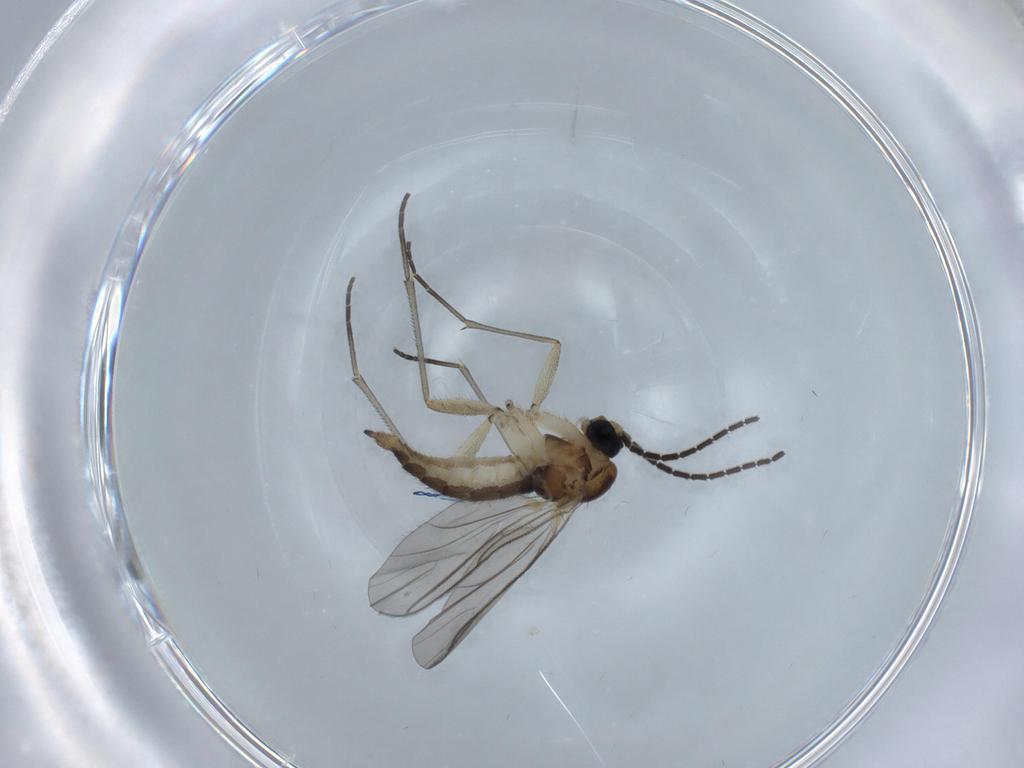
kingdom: Animalia
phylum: Arthropoda
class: Insecta
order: Diptera
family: Sciaridae
